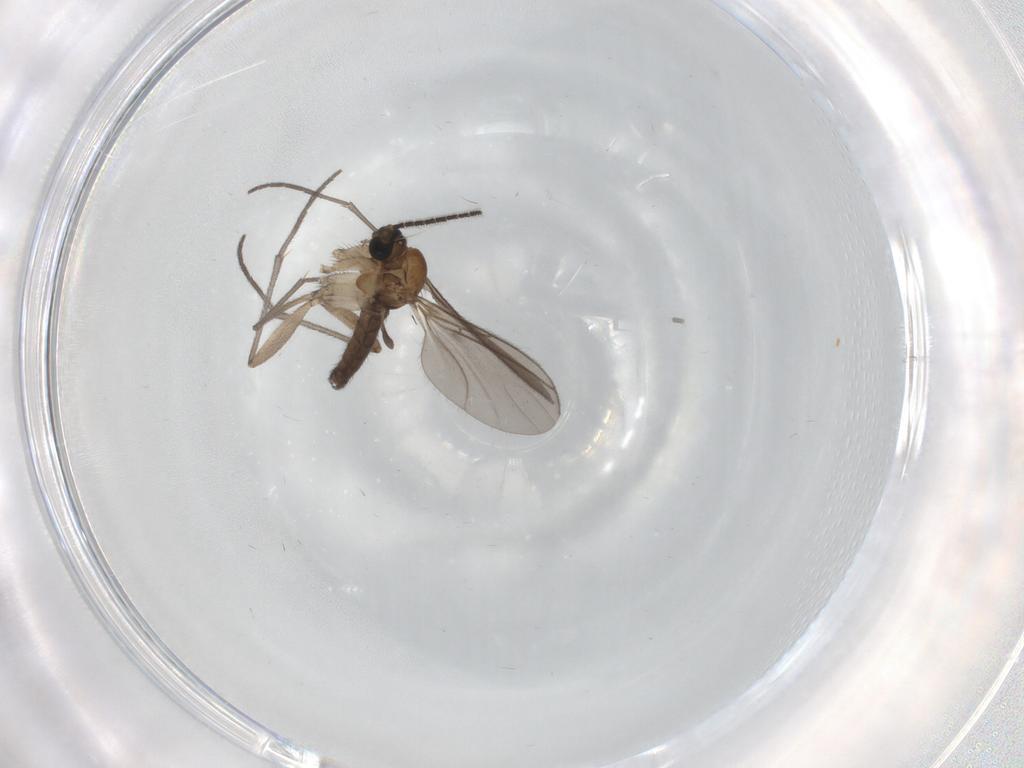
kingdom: Animalia
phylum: Arthropoda
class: Insecta
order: Diptera
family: Sciaridae
